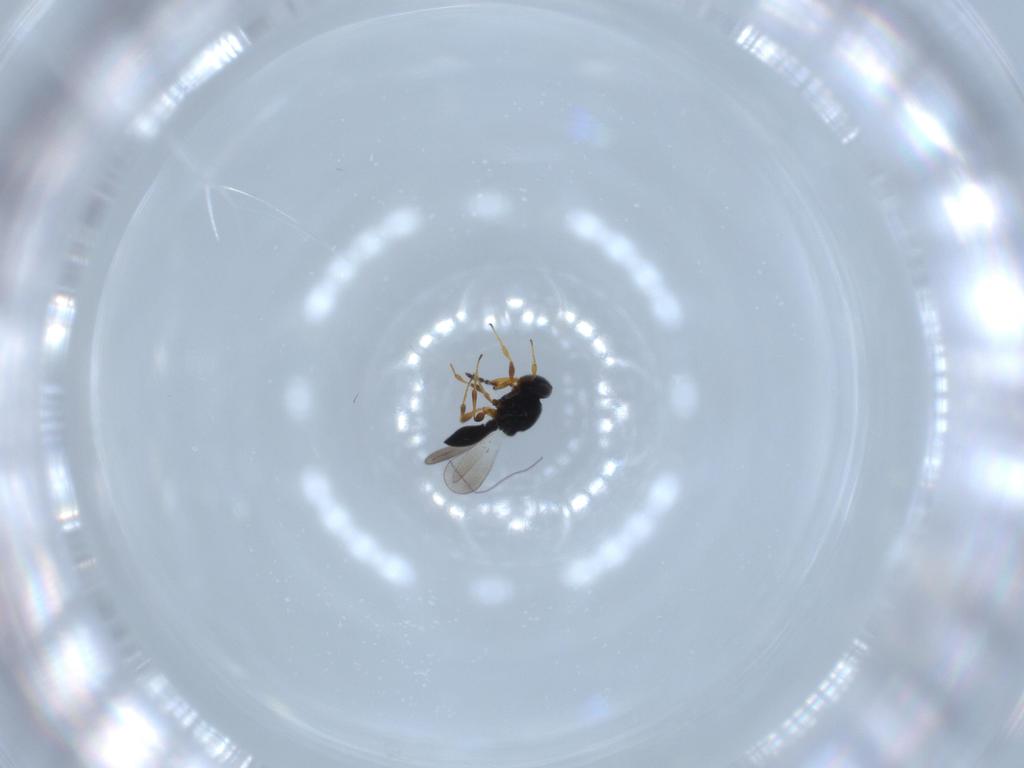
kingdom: Animalia
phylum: Arthropoda
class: Insecta
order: Hymenoptera
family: Platygastridae
